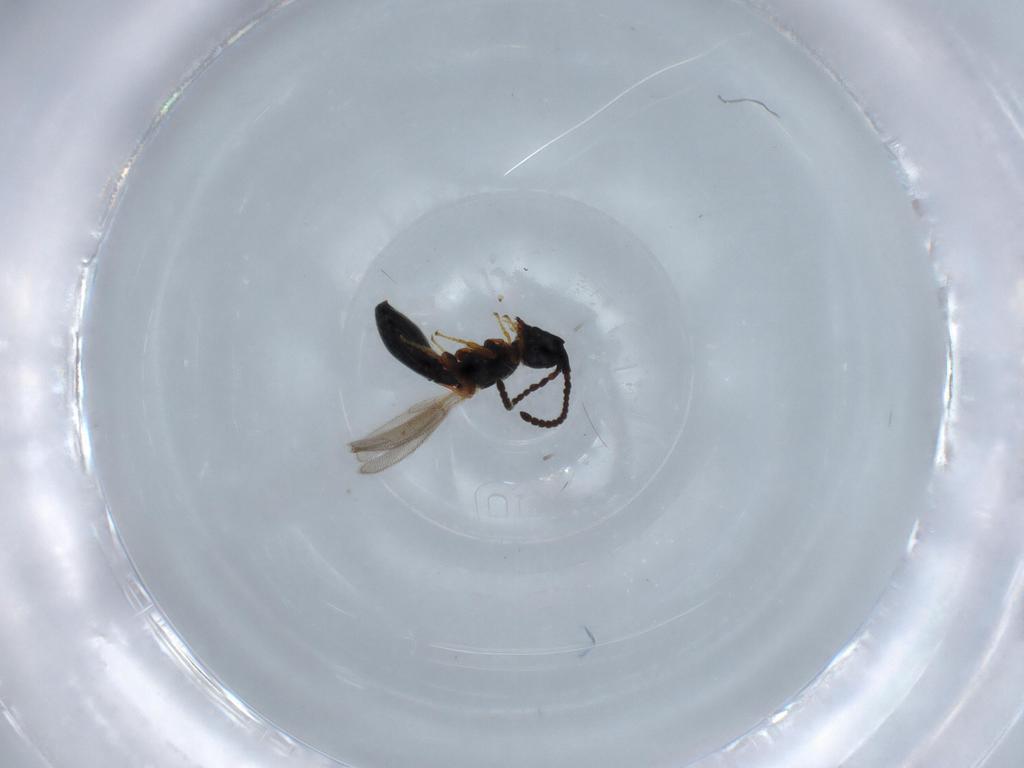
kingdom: Animalia
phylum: Arthropoda
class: Insecta
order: Hymenoptera
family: Diapriidae
